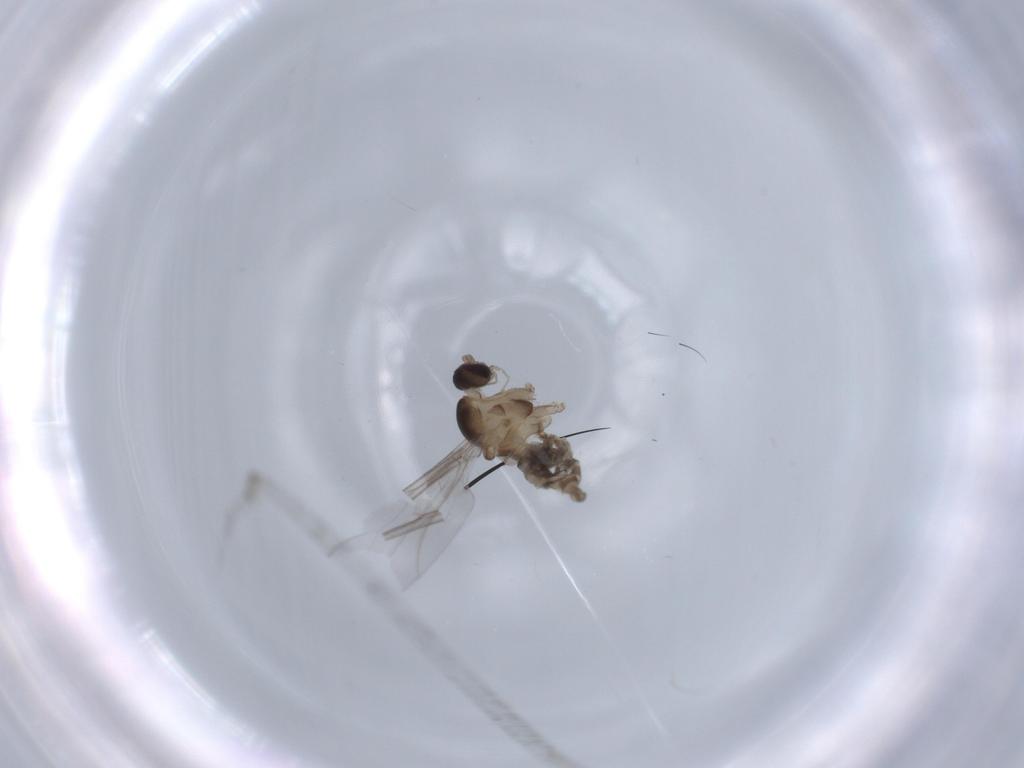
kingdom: Animalia
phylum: Arthropoda
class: Insecta
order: Diptera
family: Cecidomyiidae
